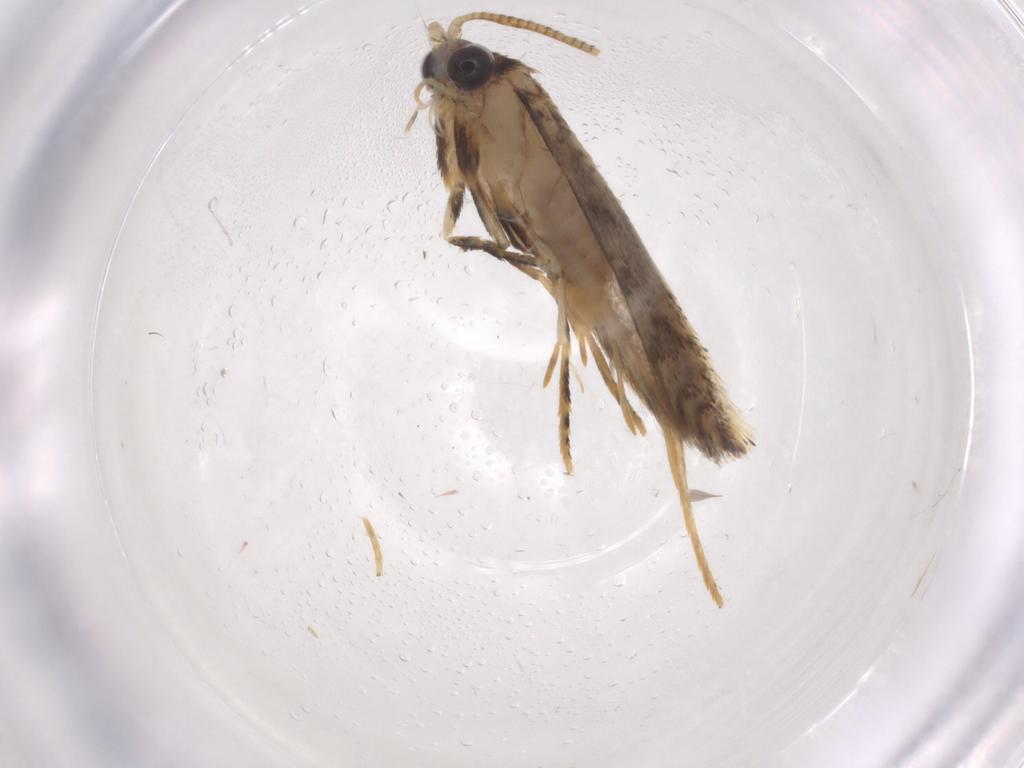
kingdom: Animalia
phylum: Arthropoda
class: Insecta
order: Lepidoptera
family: Tineidae
